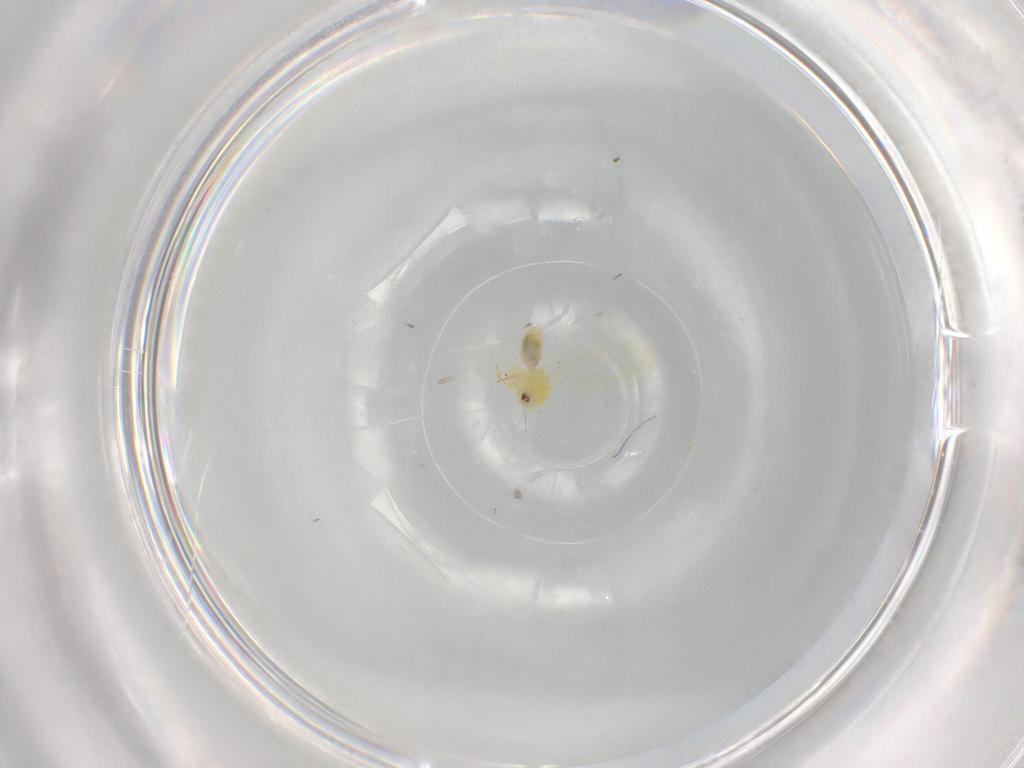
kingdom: Animalia
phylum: Arthropoda
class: Insecta
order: Hemiptera
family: Aleyrodidae
